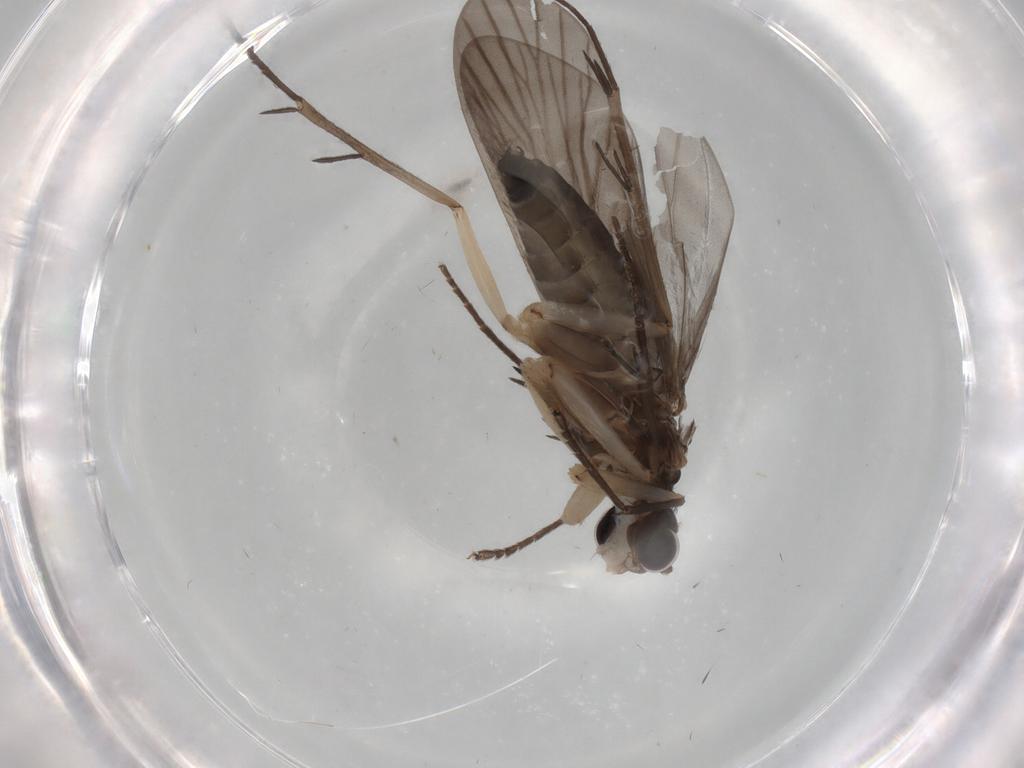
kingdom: Animalia
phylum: Arthropoda
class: Insecta
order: Trichoptera
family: Philopotamidae
